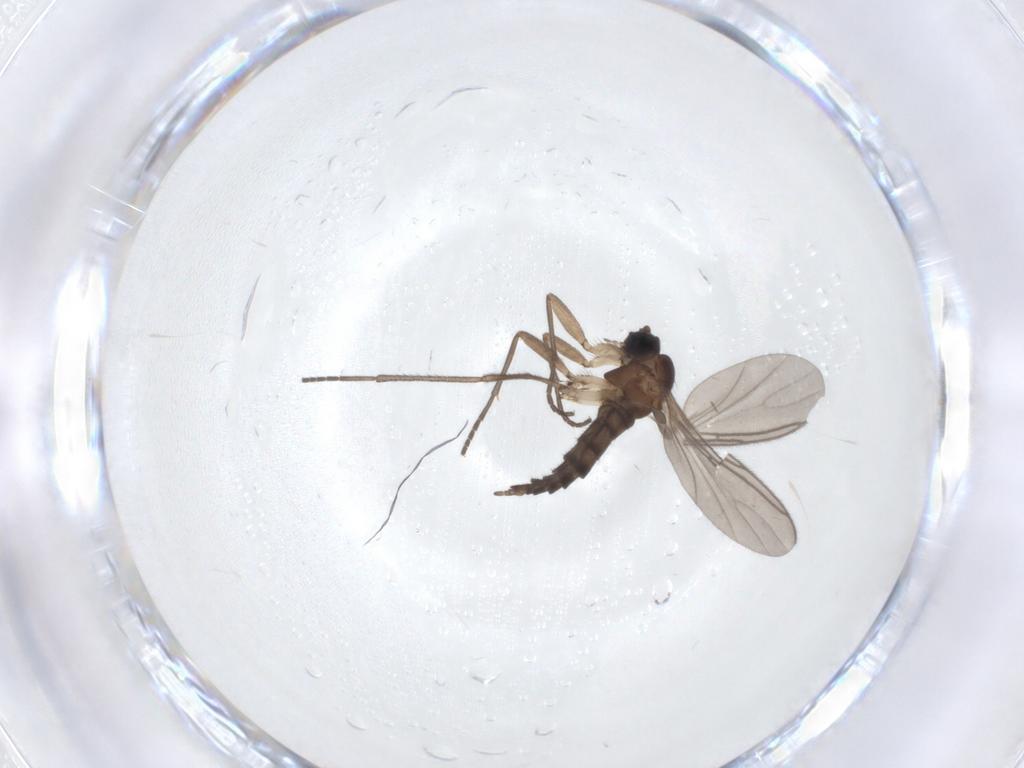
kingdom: Animalia
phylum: Arthropoda
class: Insecta
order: Diptera
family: Sciaridae
